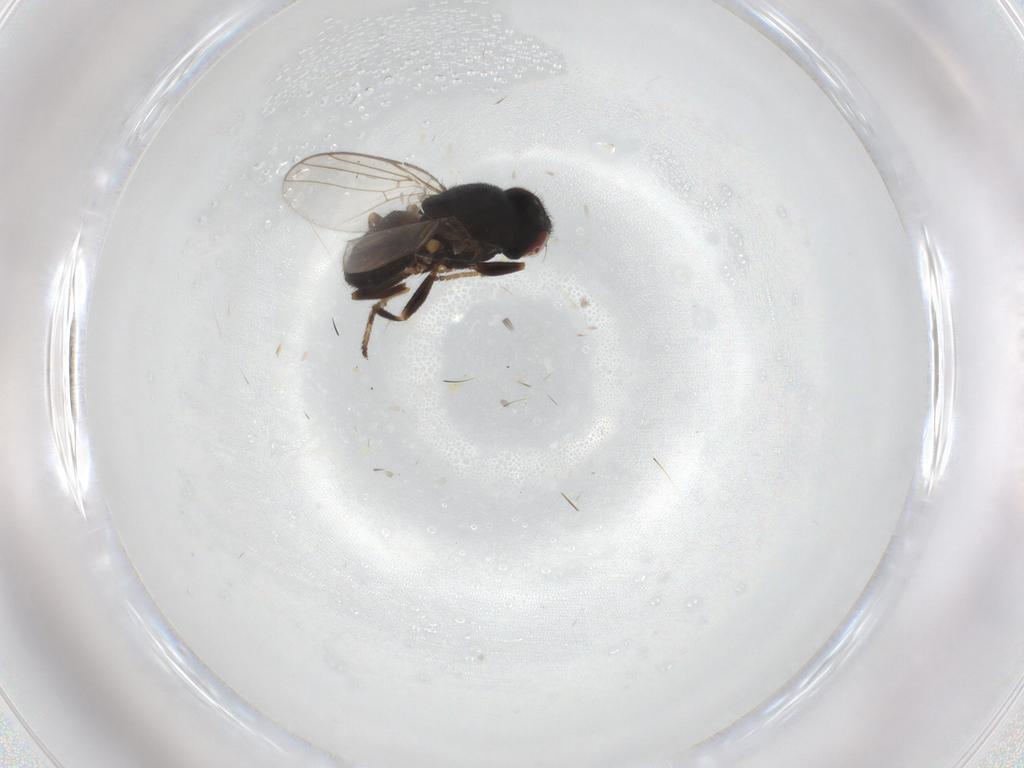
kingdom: Animalia
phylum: Arthropoda
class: Insecta
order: Diptera
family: Chloropidae
